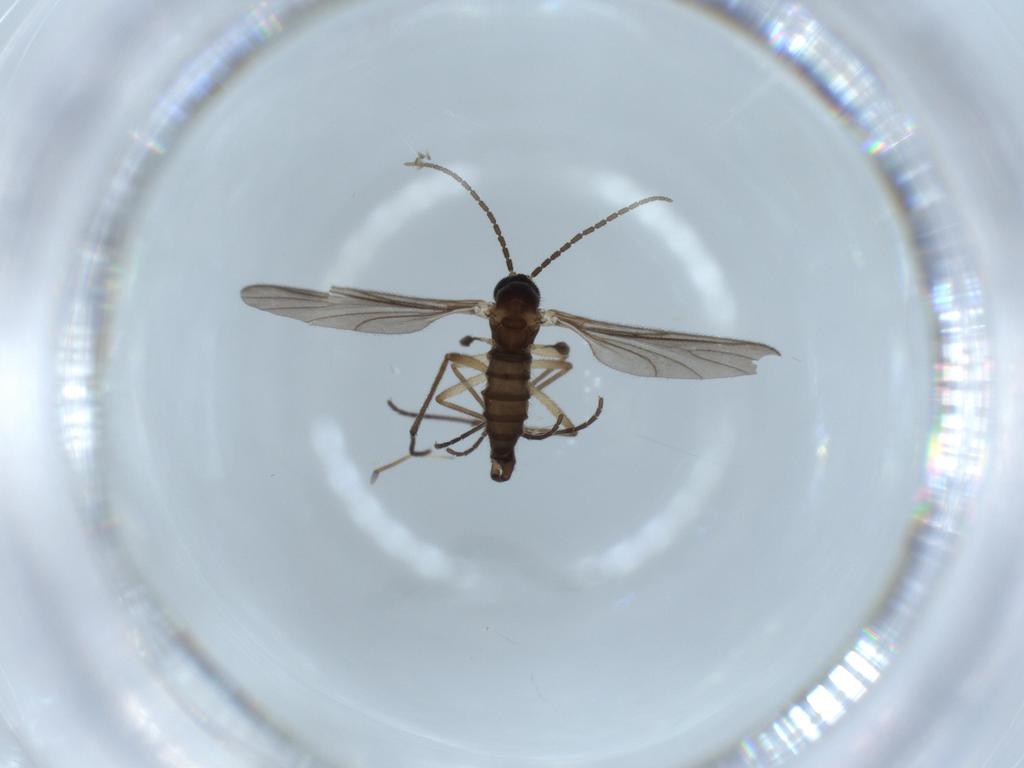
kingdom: Animalia
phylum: Arthropoda
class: Insecta
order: Diptera
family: Sciaridae
